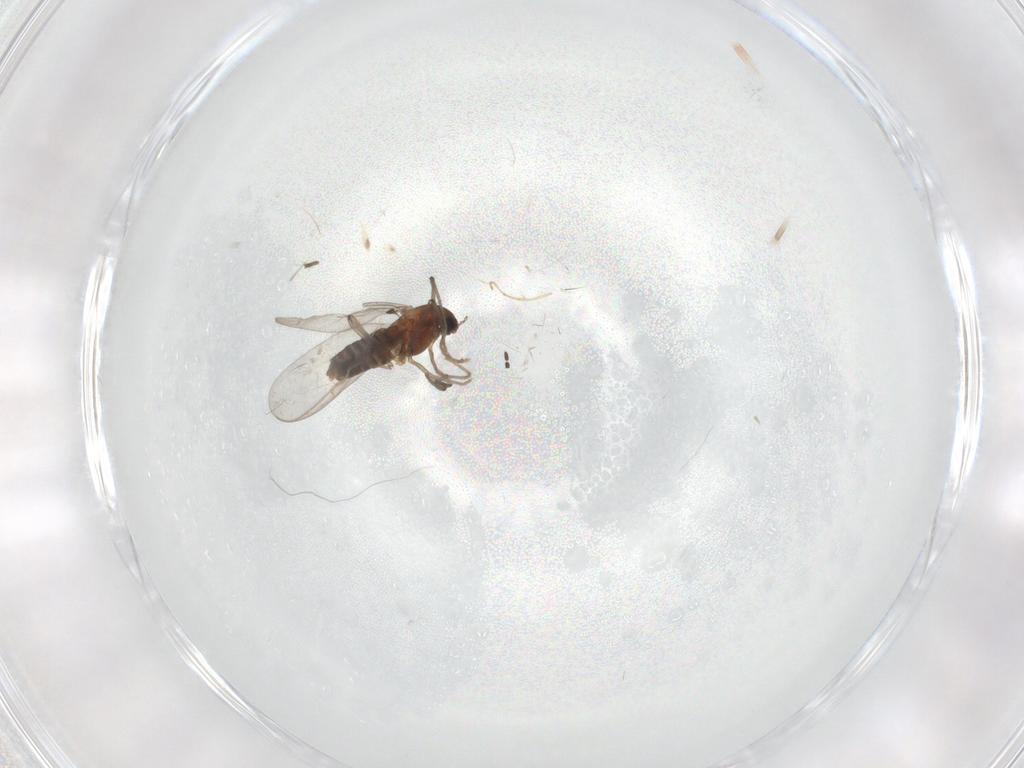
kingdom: Animalia
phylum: Arthropoda
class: Insecta
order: Diptera
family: Chironomidae
